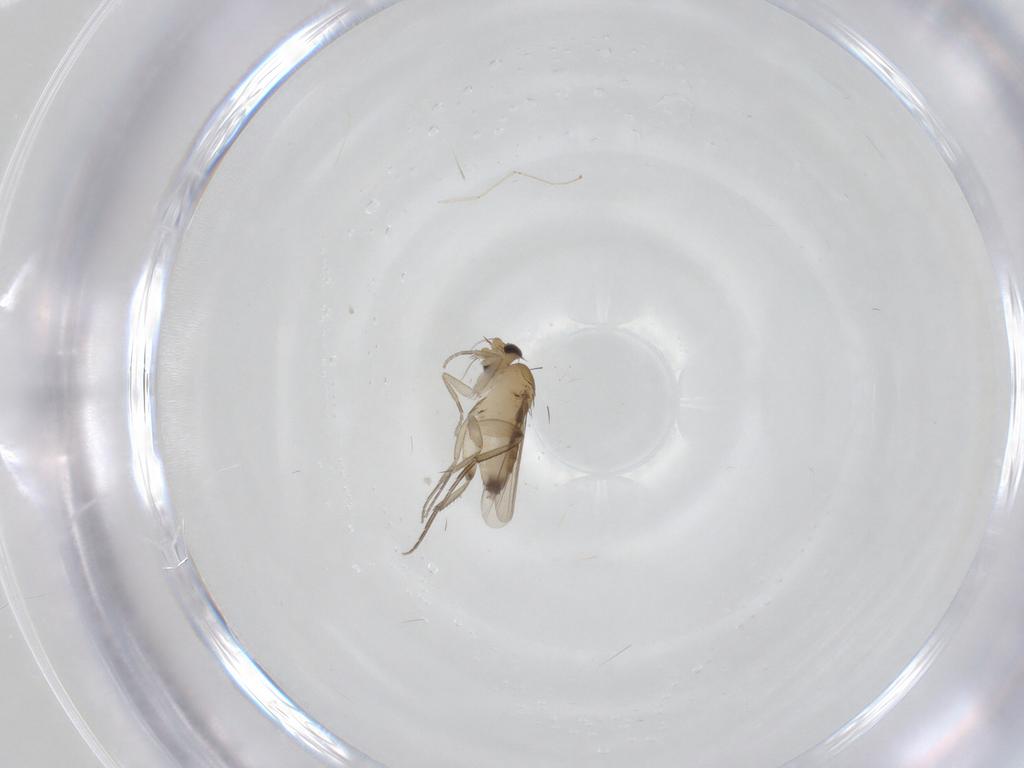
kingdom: Animalia
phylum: Arthropoda
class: Insecta
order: Diptera
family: Phoridae
